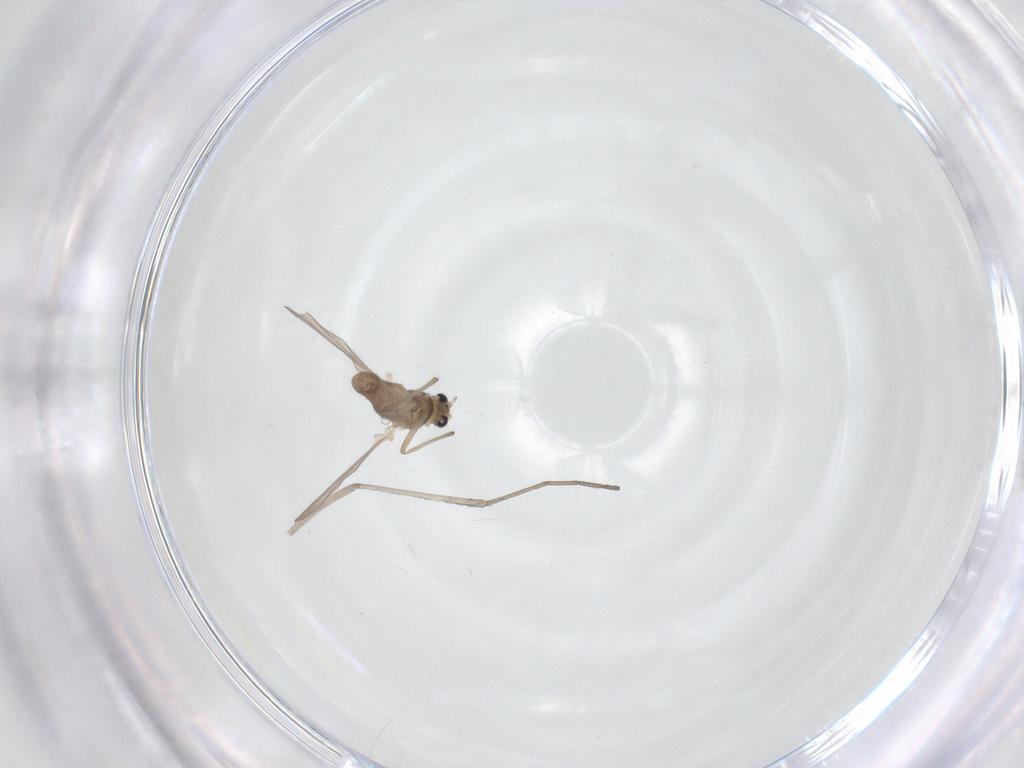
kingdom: Animalia
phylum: Arthropoda
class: Insecta
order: Diptera
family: Chironomidae
